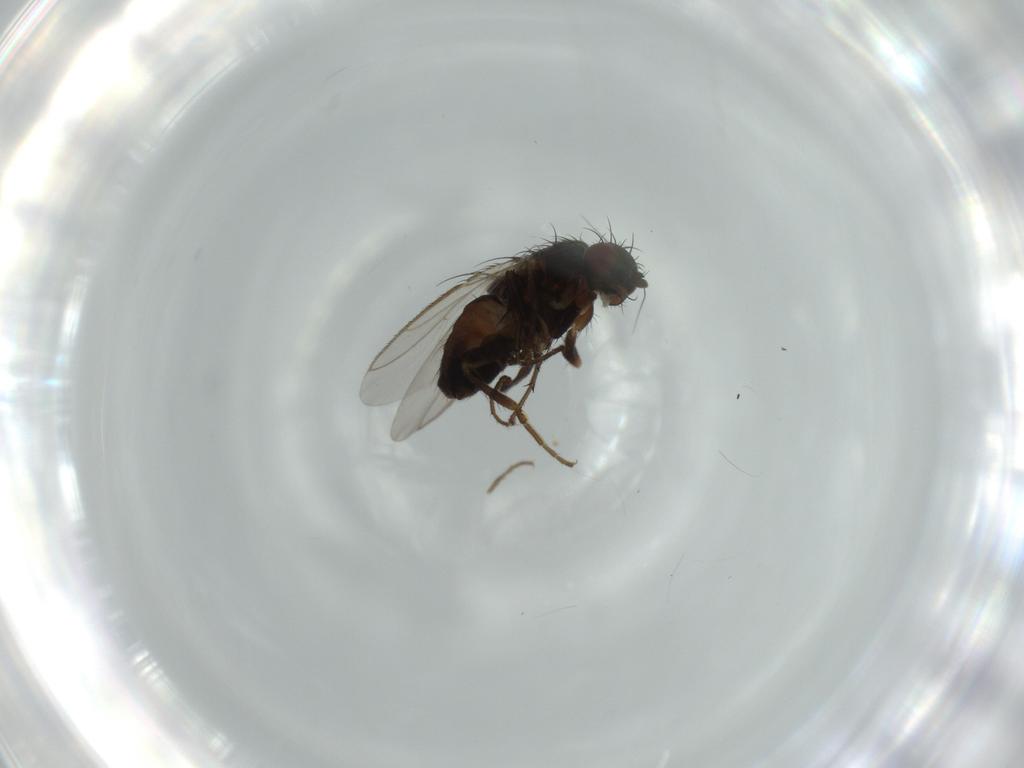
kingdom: Animalia
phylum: Arthropoda
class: Insecta
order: Diptera
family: Sphaeroceridae
